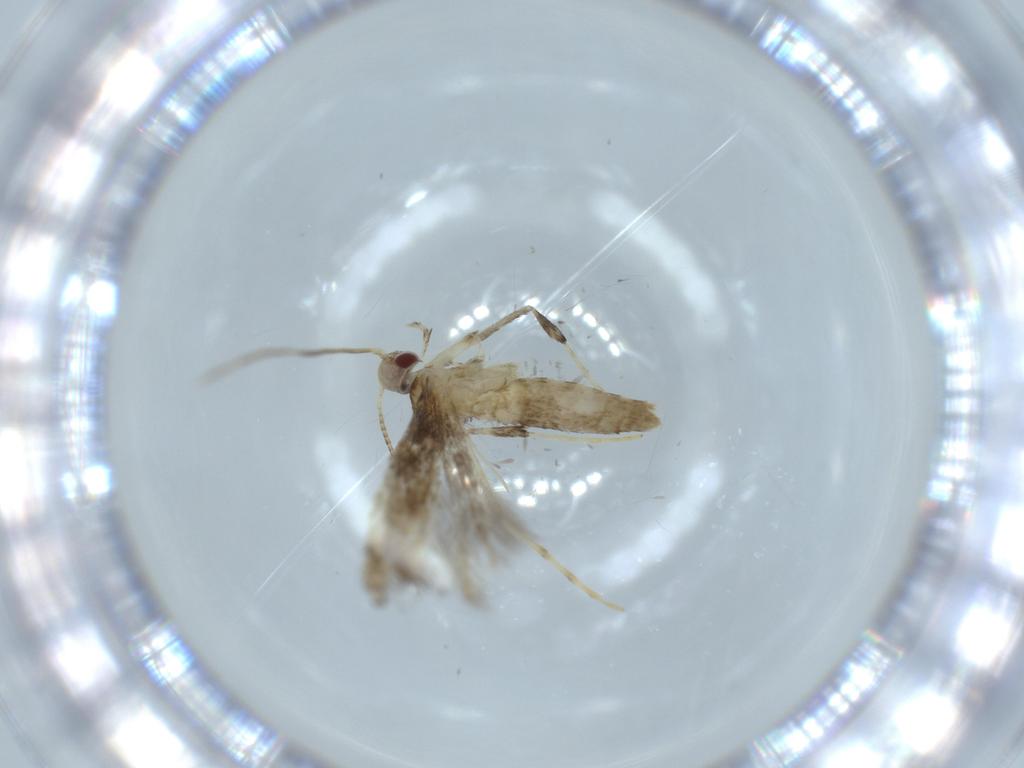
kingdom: Animalia
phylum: Arthropoda
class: Insecta
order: Lepidoptera
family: Gracillariidae
